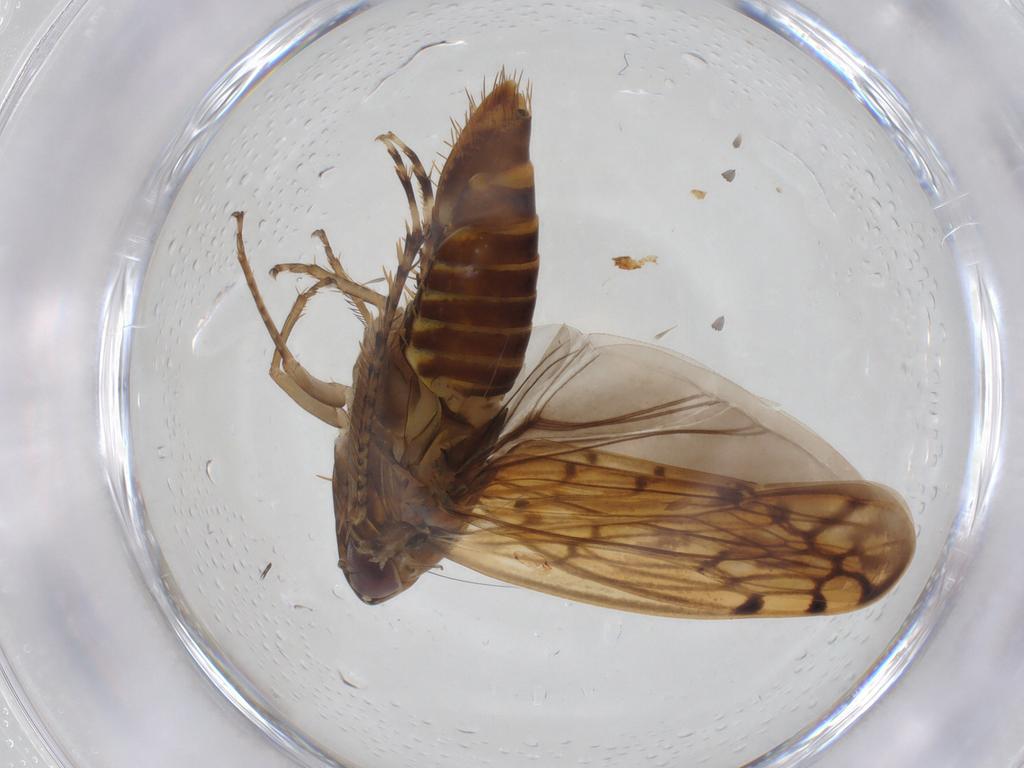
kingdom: Animalia
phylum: Arthropoda
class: Insecta
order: Hemiptera
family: Cicadellidae
